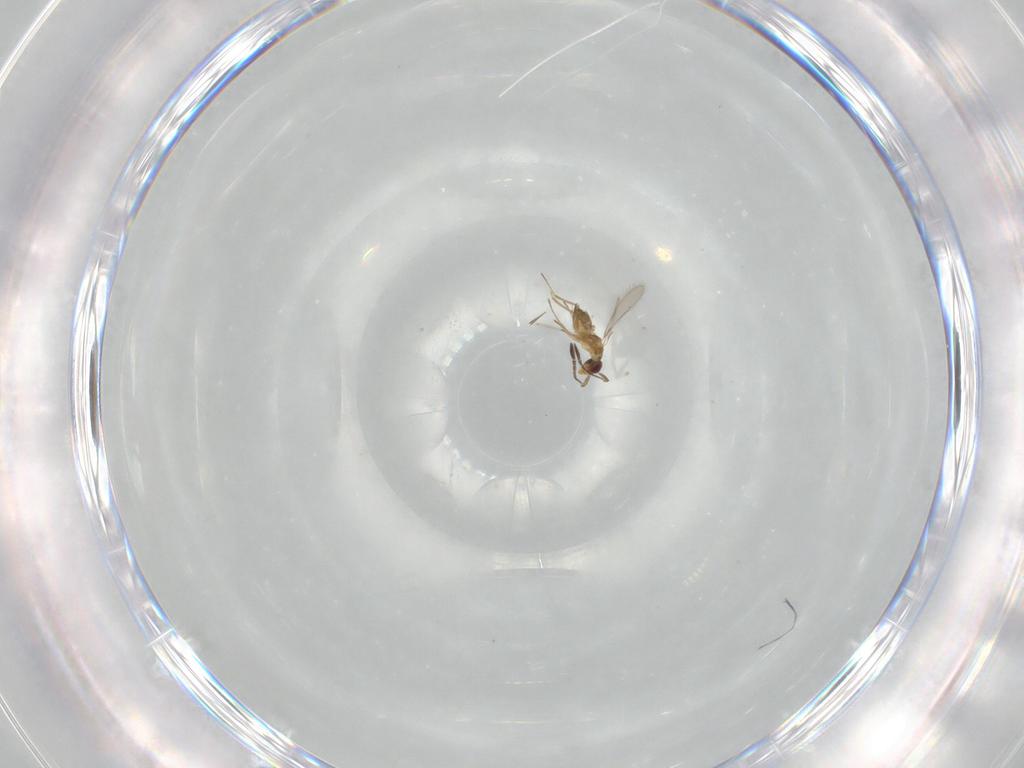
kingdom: Animalia
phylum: Arthropoda
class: Insecta
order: Hymenoptera
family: Mymaridae
